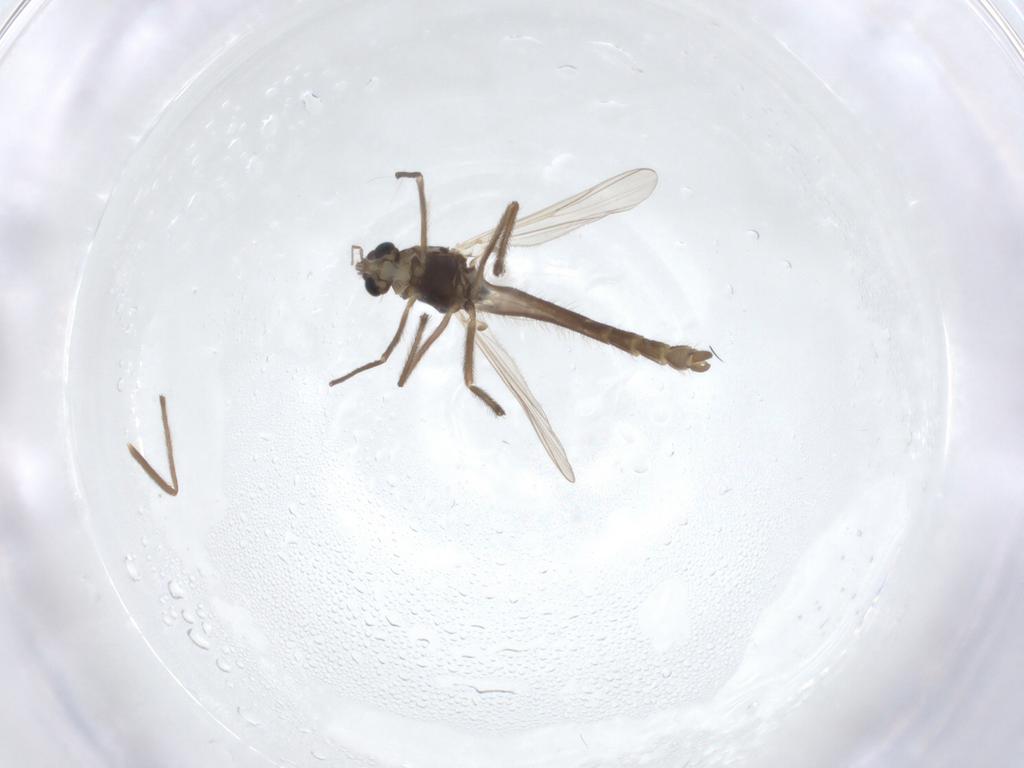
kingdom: Animalia
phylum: Arthropoda
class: Insecta
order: Diptera
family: Chironomidae
